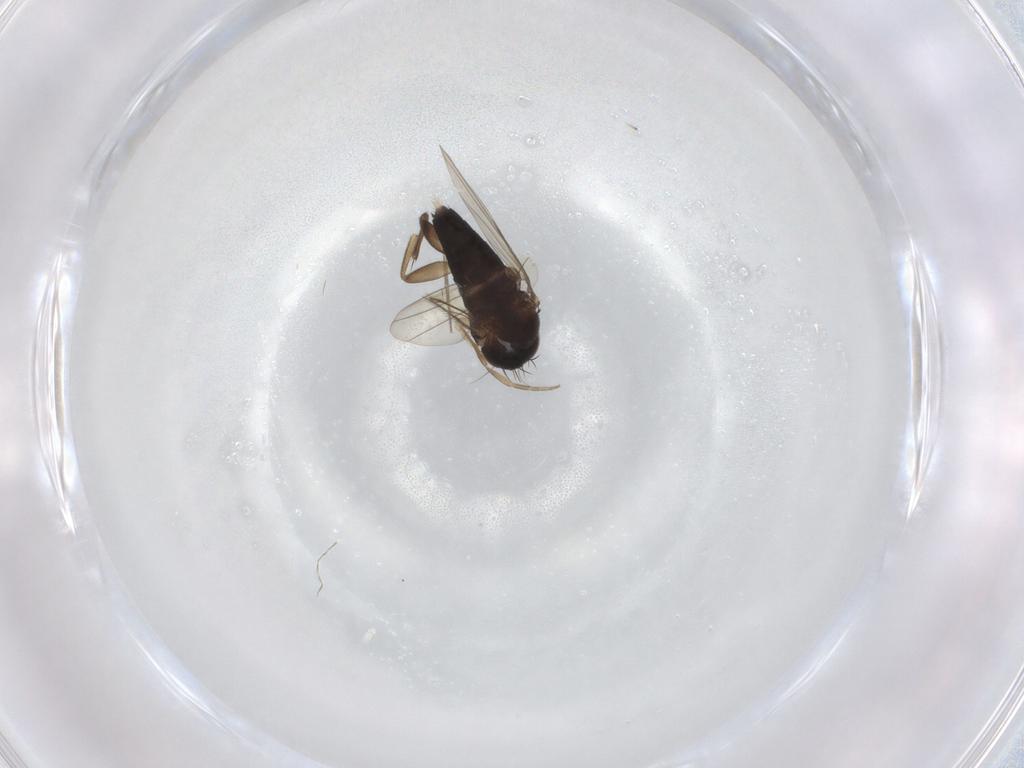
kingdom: Animalia
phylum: Arthropoda
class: Insecta
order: Diptera
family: Phoridae
